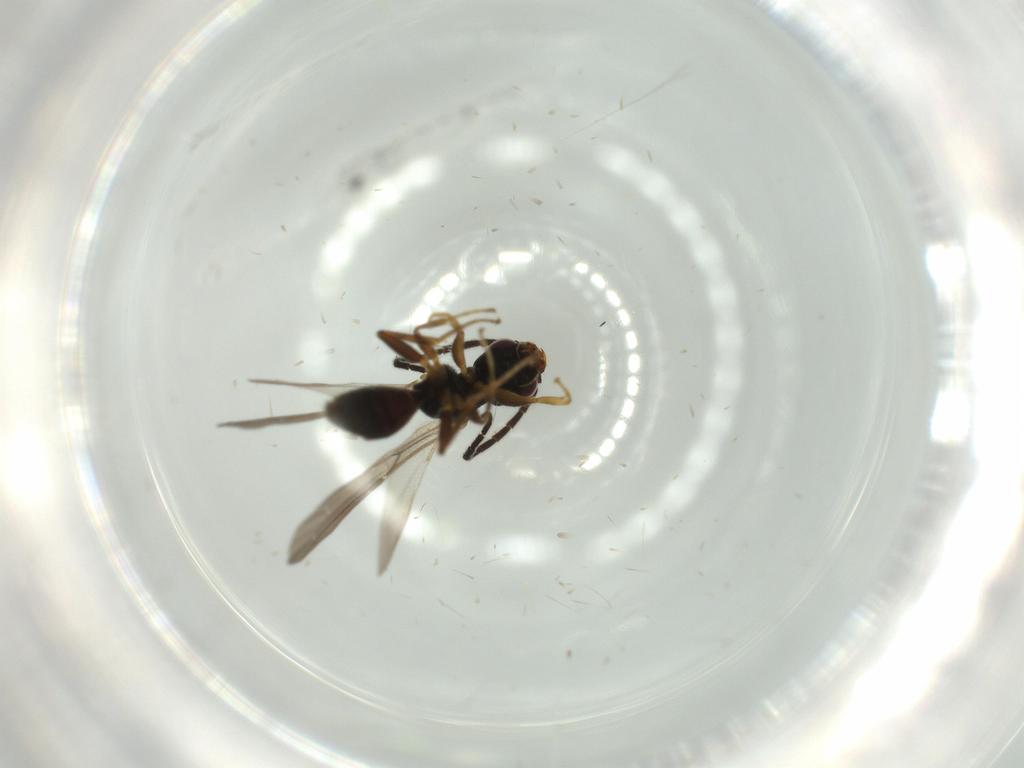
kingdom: Animalia
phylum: Arthropoda
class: Insecta
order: Hymenoptera
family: Bethylidae
